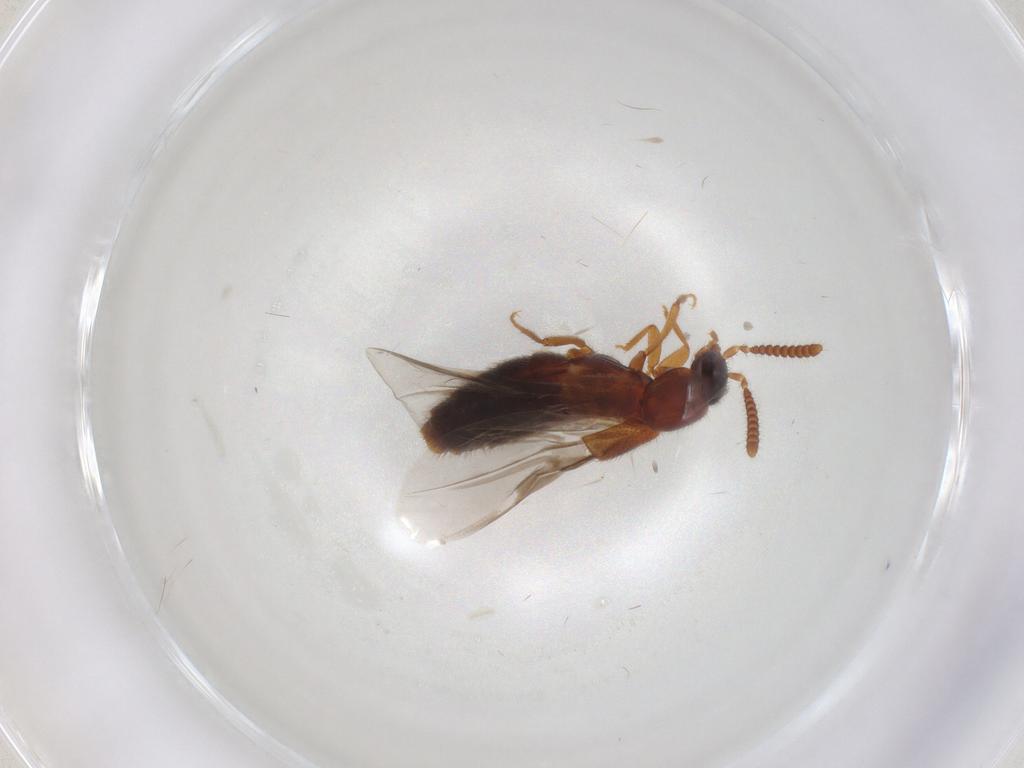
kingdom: Animalia
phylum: Arthropoda
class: Insecta
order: Coleoptera
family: Staphylinidae
